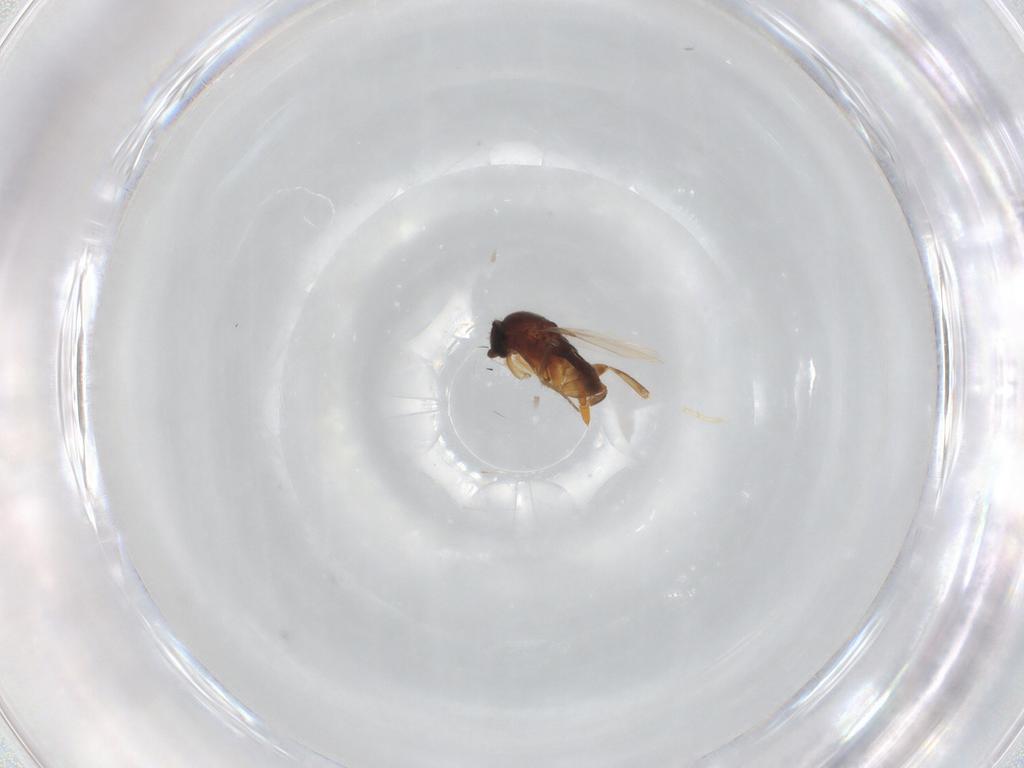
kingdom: Animalia
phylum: Arthropoda
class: Insecta
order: Diptera
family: Phoridae
